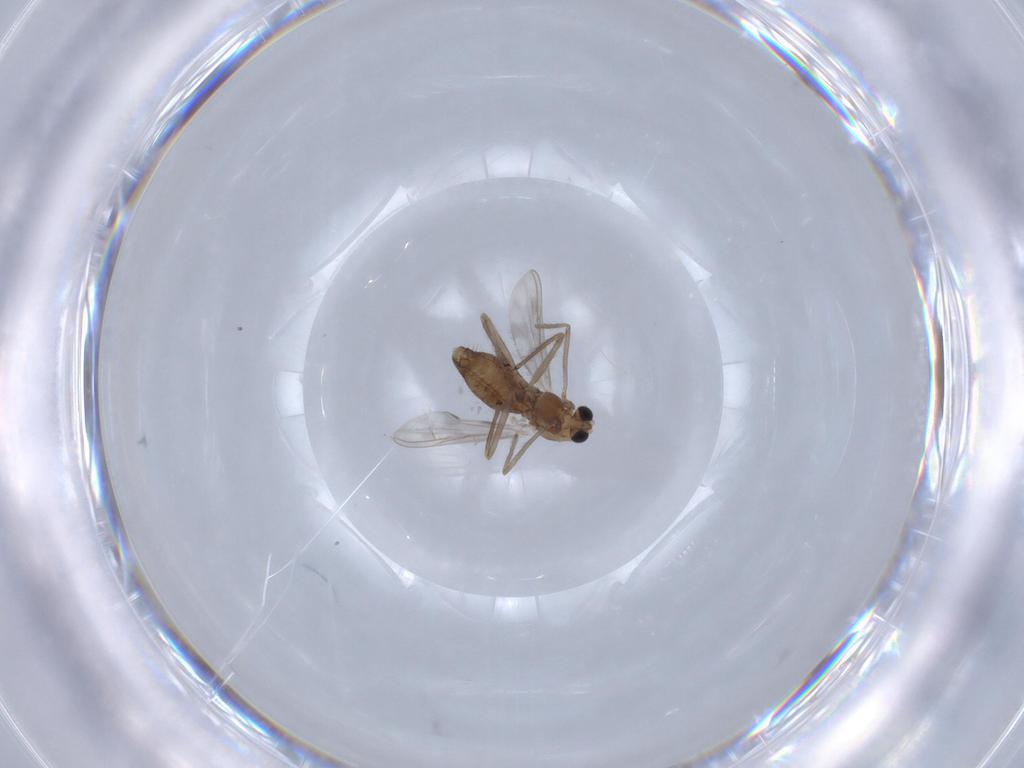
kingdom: Animalia
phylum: Arthropoda
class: Insecta
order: Diptera
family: Chironomidae
